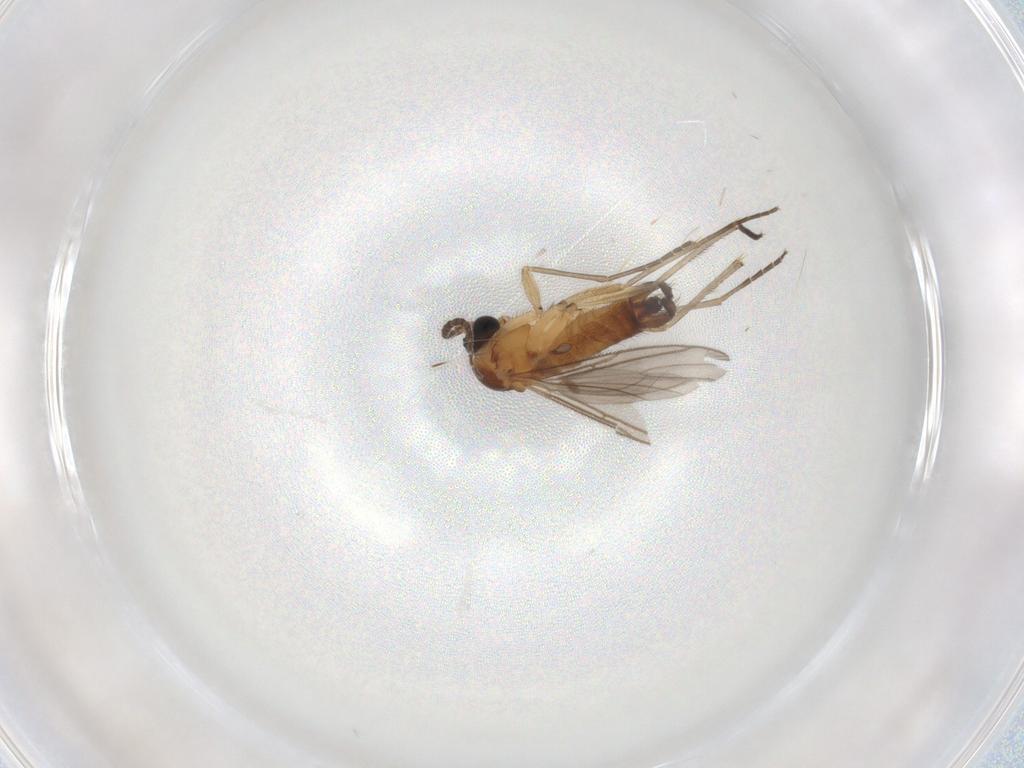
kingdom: Animalia
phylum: Arthropoda
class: Insecta
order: Diptera
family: Sciaridae
